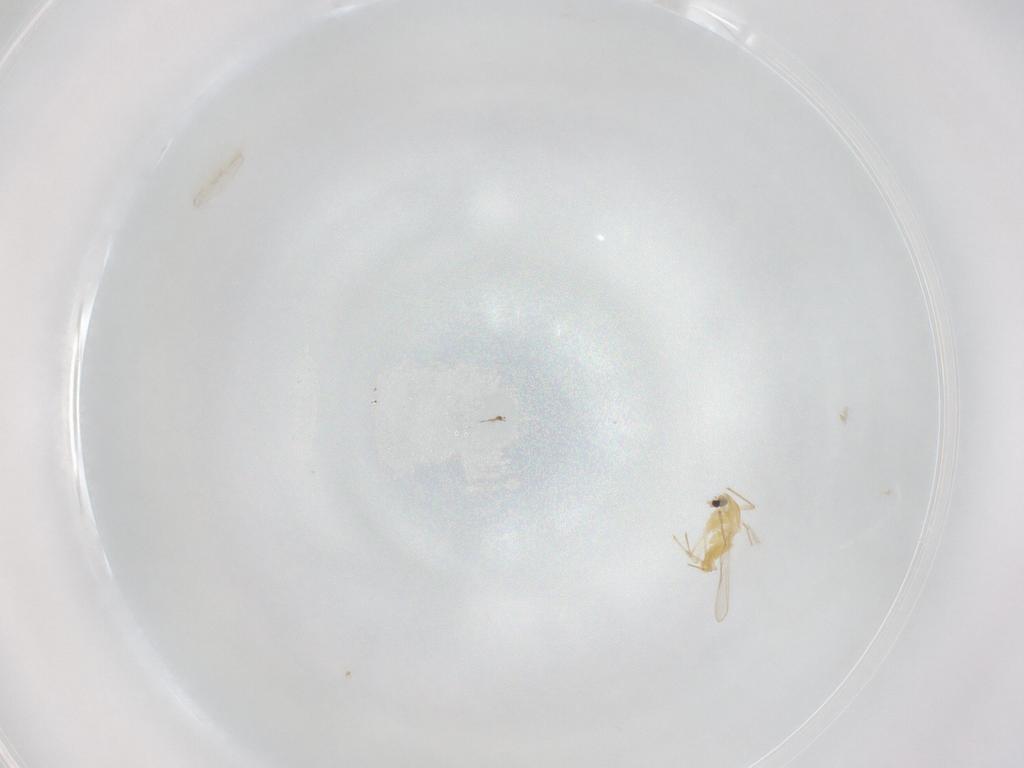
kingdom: Animalia
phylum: Arthropoda
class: Insecta
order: Diptera
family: Chironomidae
